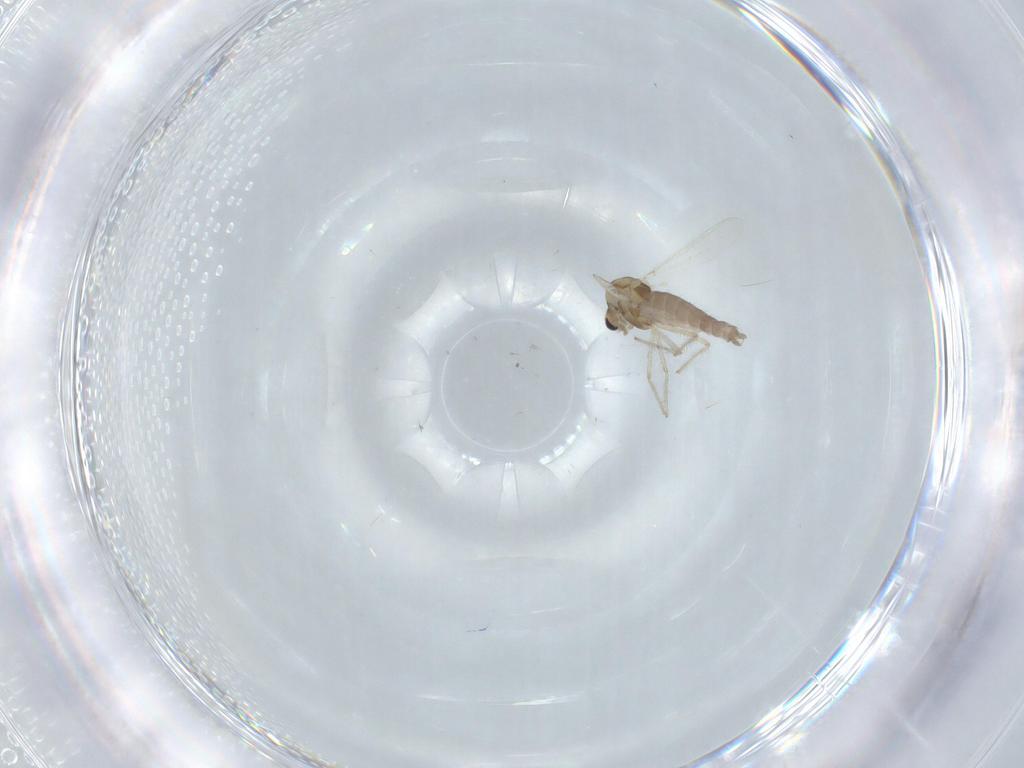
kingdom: Animalia
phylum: Arthropoda
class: Insecta
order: Diptera
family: Chironomidae
